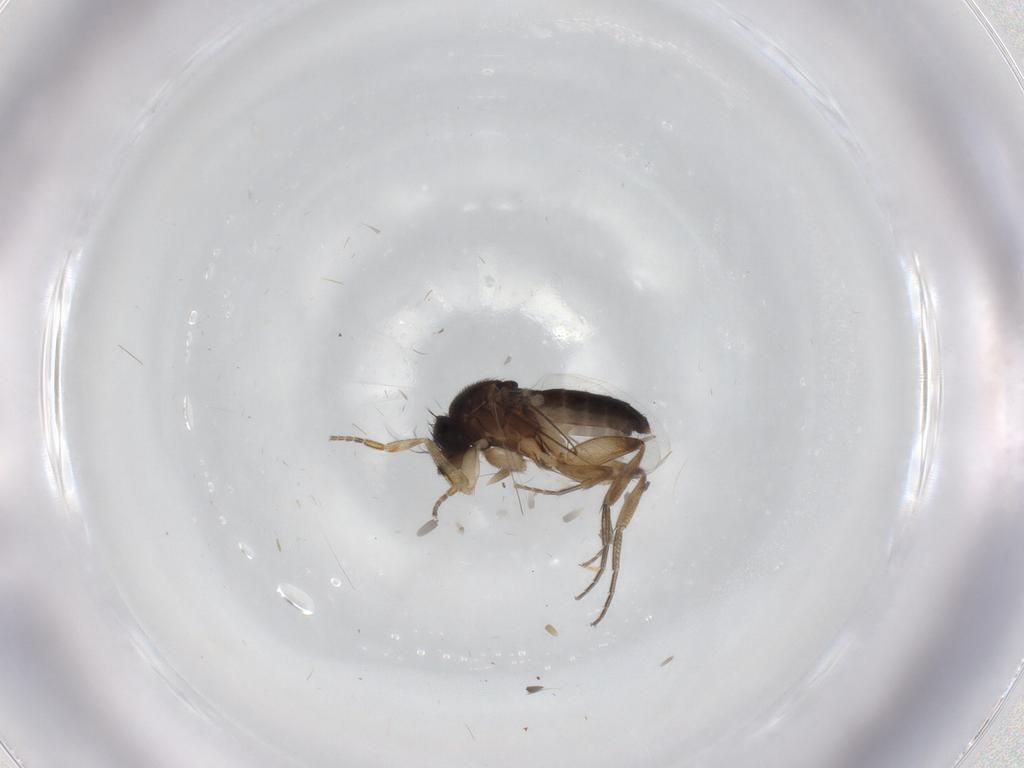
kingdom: Animalia
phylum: Arthropoda
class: Insecta
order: Diptera
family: Phoridae
